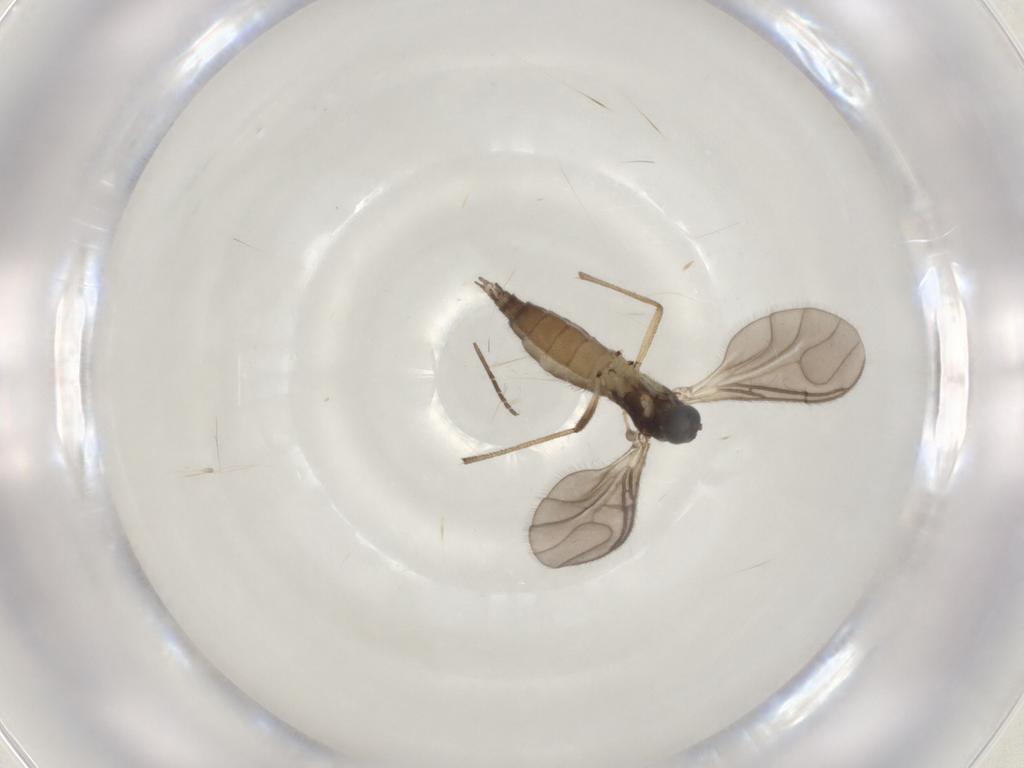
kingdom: Animalia
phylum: Arthropoda
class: Insecta
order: Diptera
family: Sciaridae
